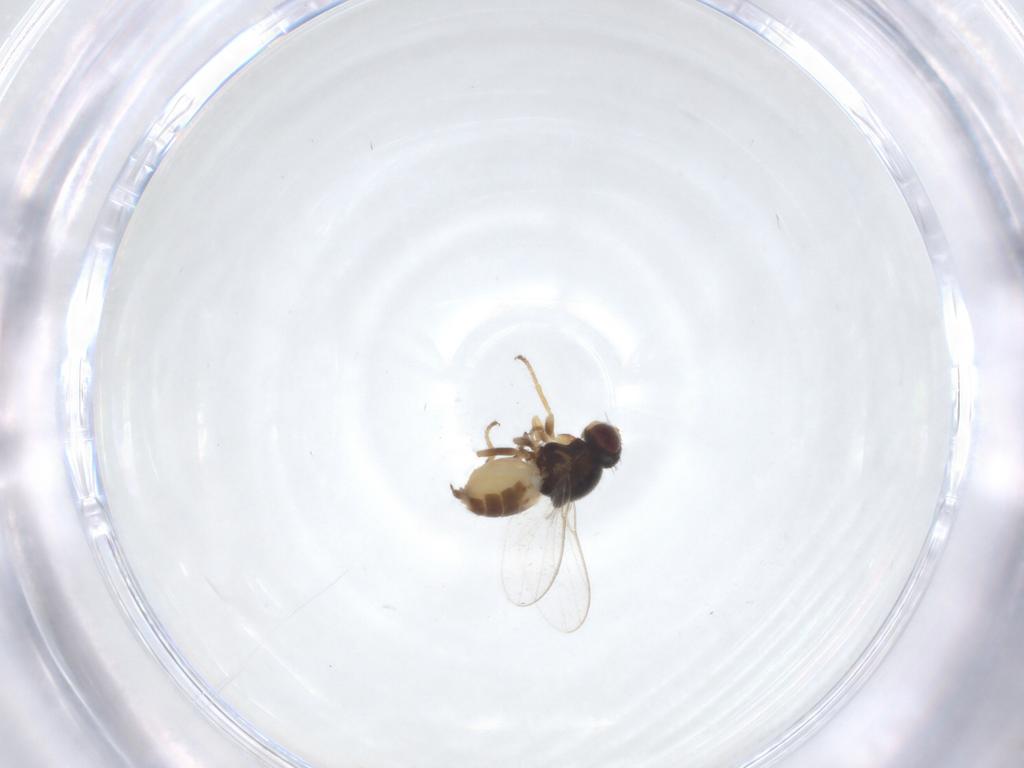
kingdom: Animalia
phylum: Arthropoda
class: Insecta
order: Diptera
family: Chloropidae
